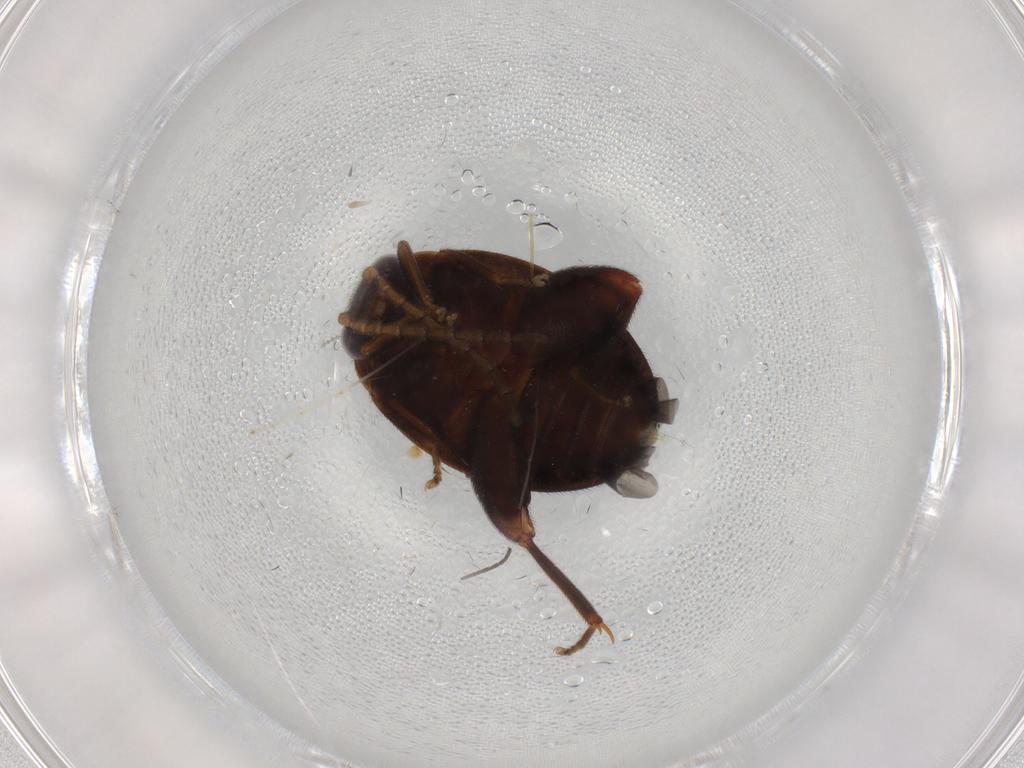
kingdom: Animalia
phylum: Arthropoda
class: Insecta
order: Coleoptera
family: Scirtidae
